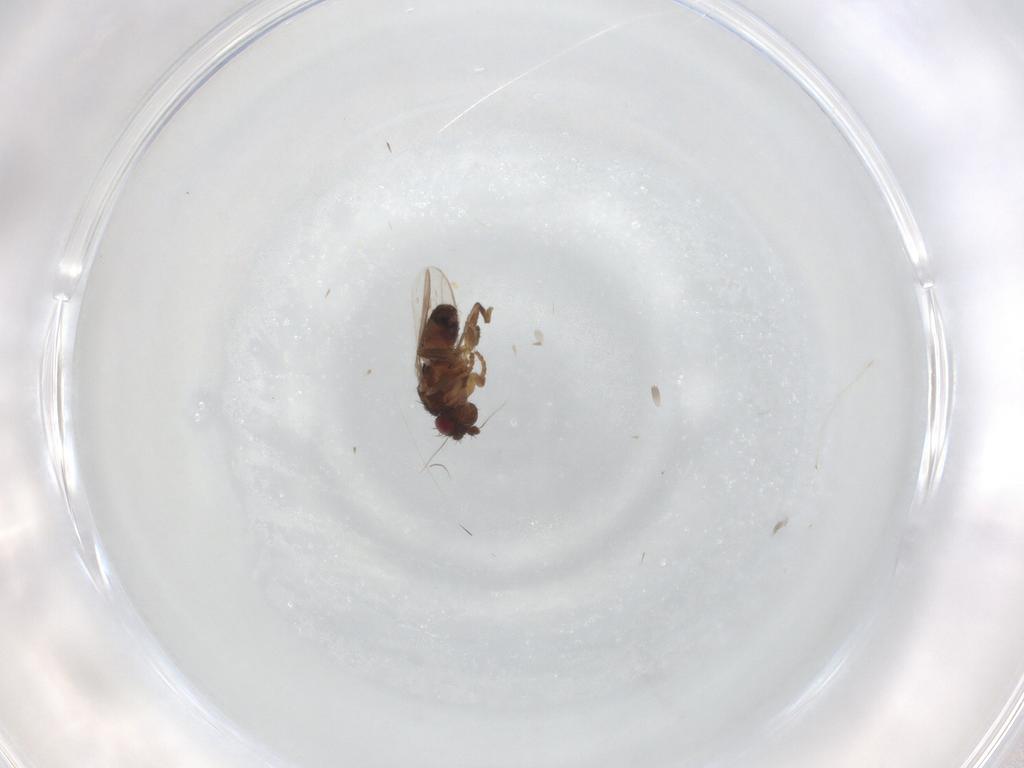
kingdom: Animalia
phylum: Arthropoda
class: Insecta
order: Diptera
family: Sphaeroceridae
